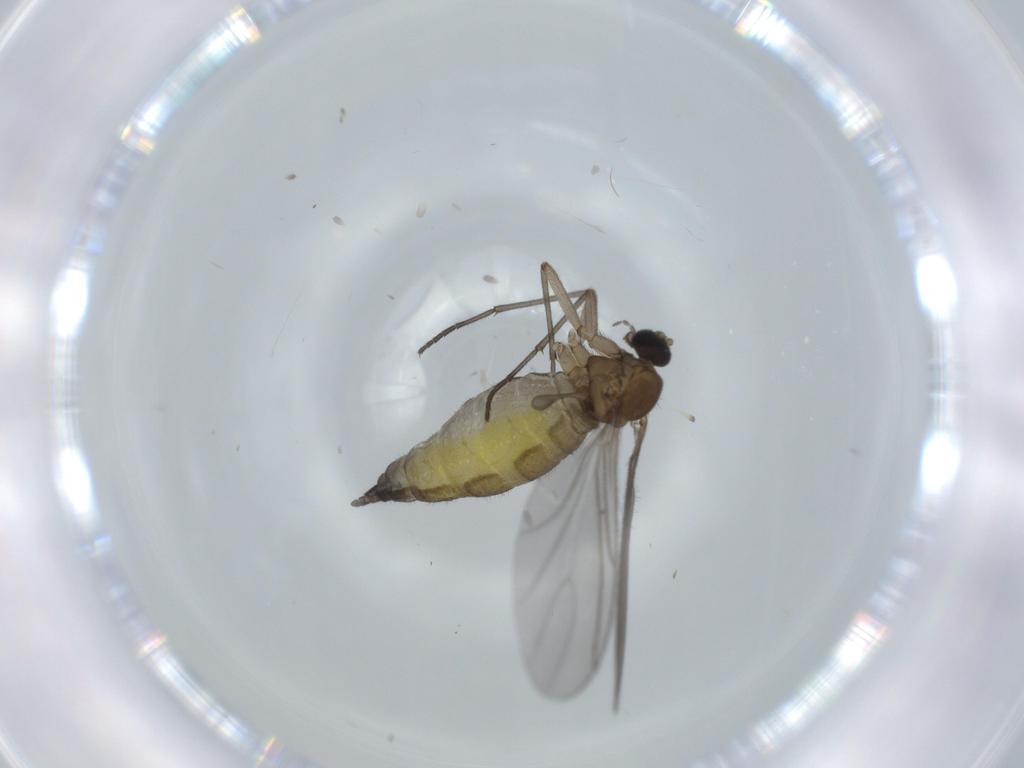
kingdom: Animalia
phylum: Arthropoda
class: Insecta
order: Diptera
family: Sciaridae
